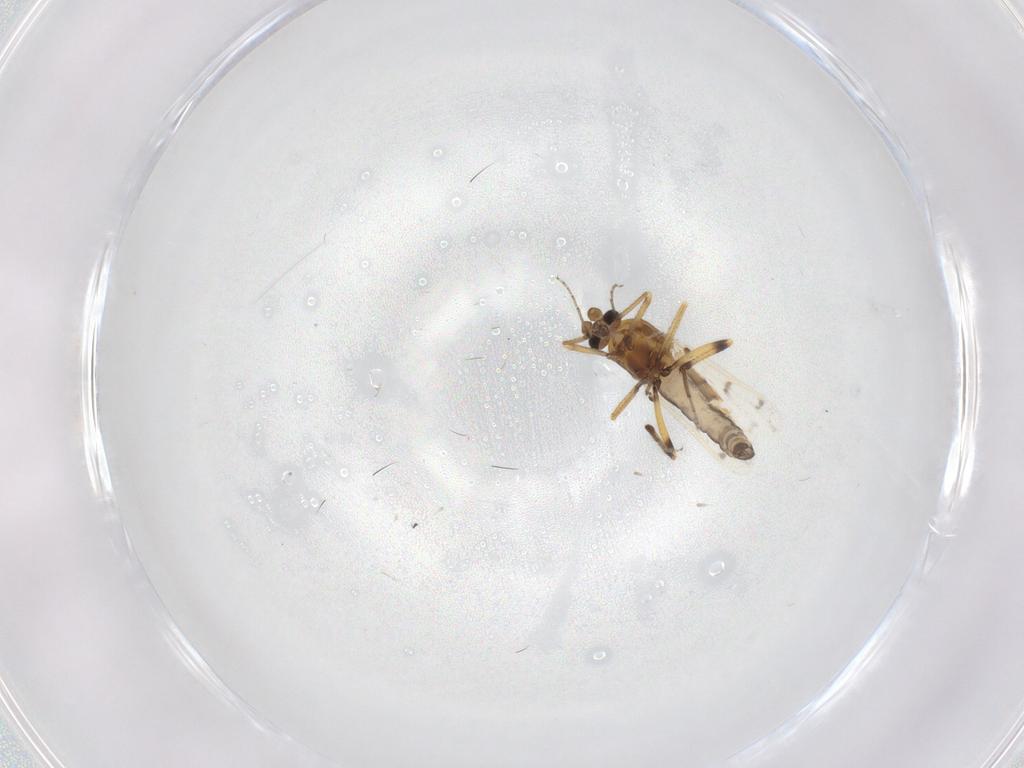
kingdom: Animalia
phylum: Arthropoda
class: Insecta
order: Diptera
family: Ceratopogonidae
